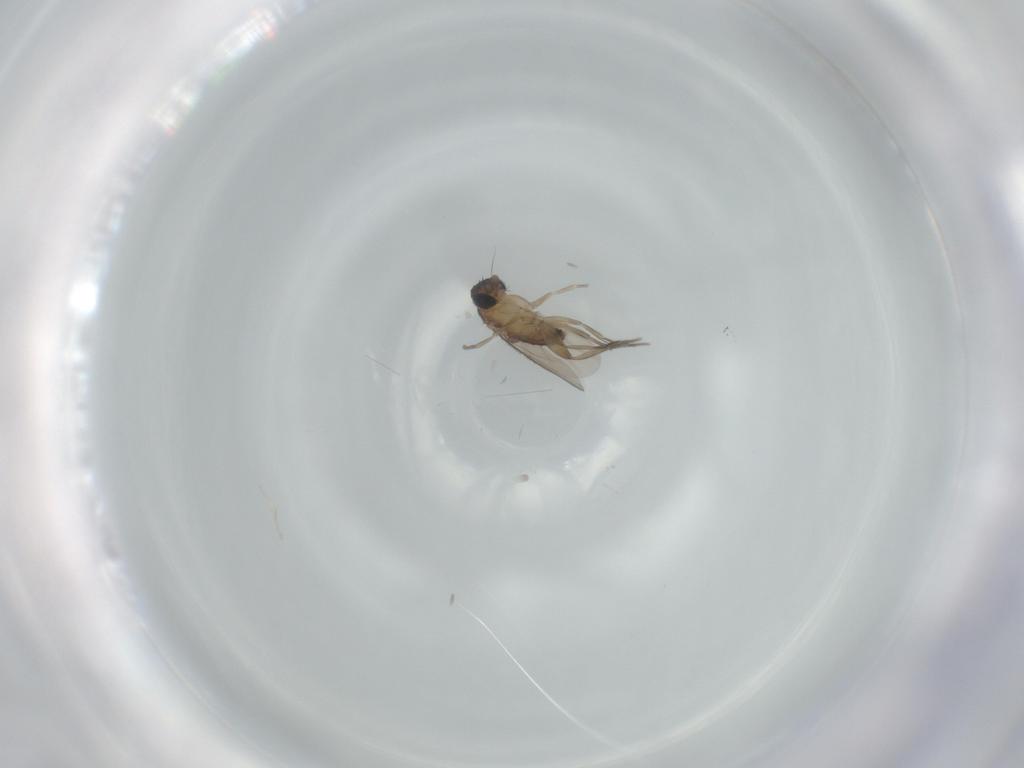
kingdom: Animalia
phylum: Arthropoda
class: Insecta
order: Diptera
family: Phoridae
